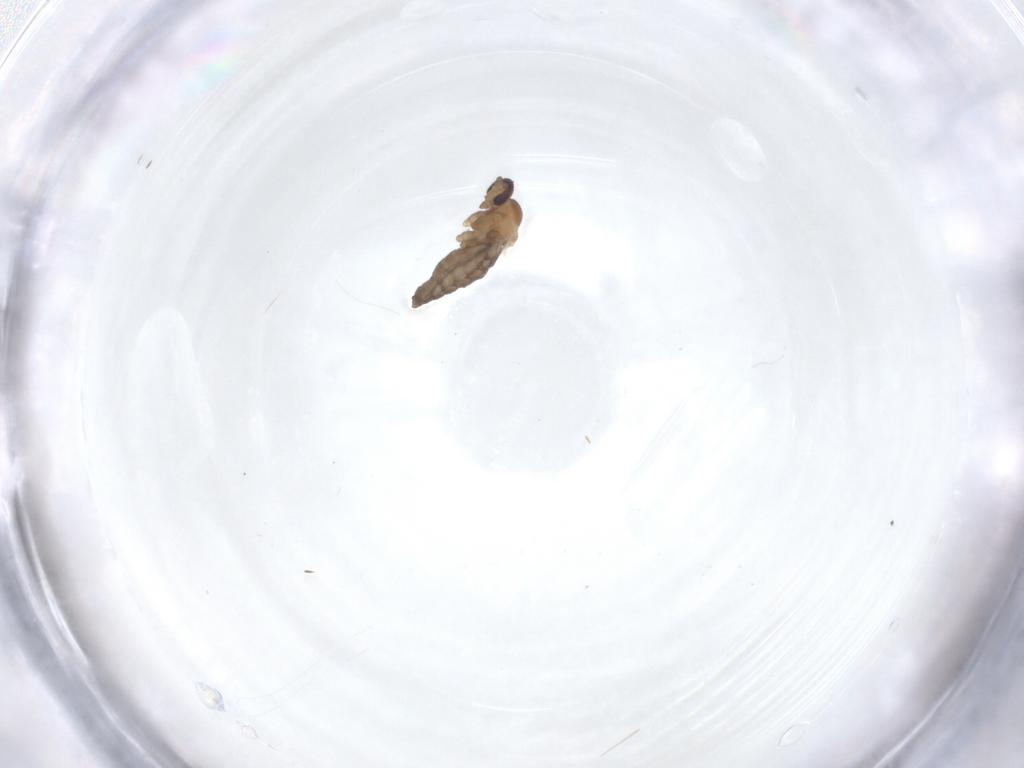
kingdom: Animalia
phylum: Arthropoda
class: Insecta
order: Diptera
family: Cecidomyiidae
